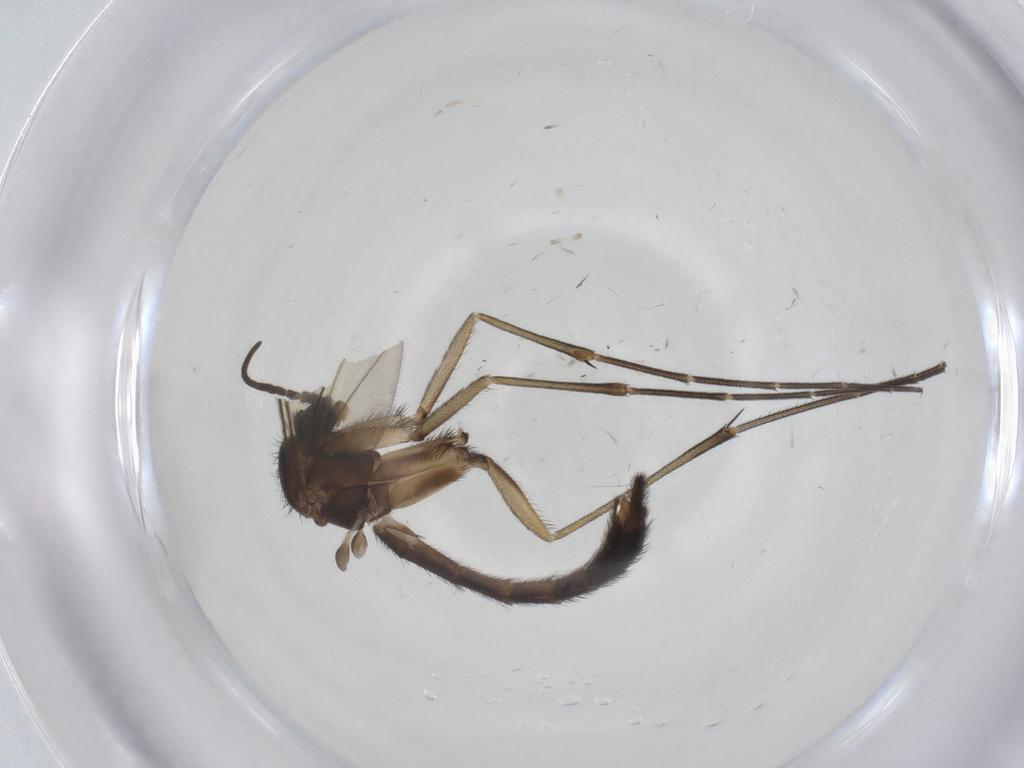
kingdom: Animalia
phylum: Arthropoda
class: Insecta
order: Diptera
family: Keroplatidae
